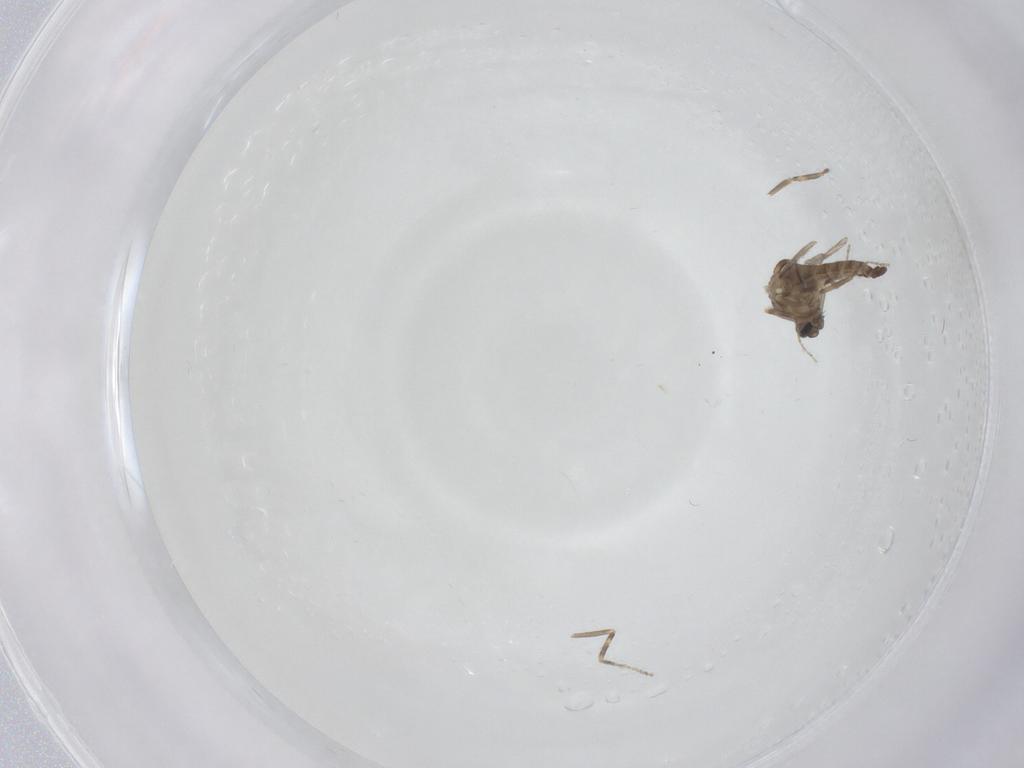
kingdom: Animalia
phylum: Arthropoda
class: Insecta
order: Diptera
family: Ceratopogonidae
